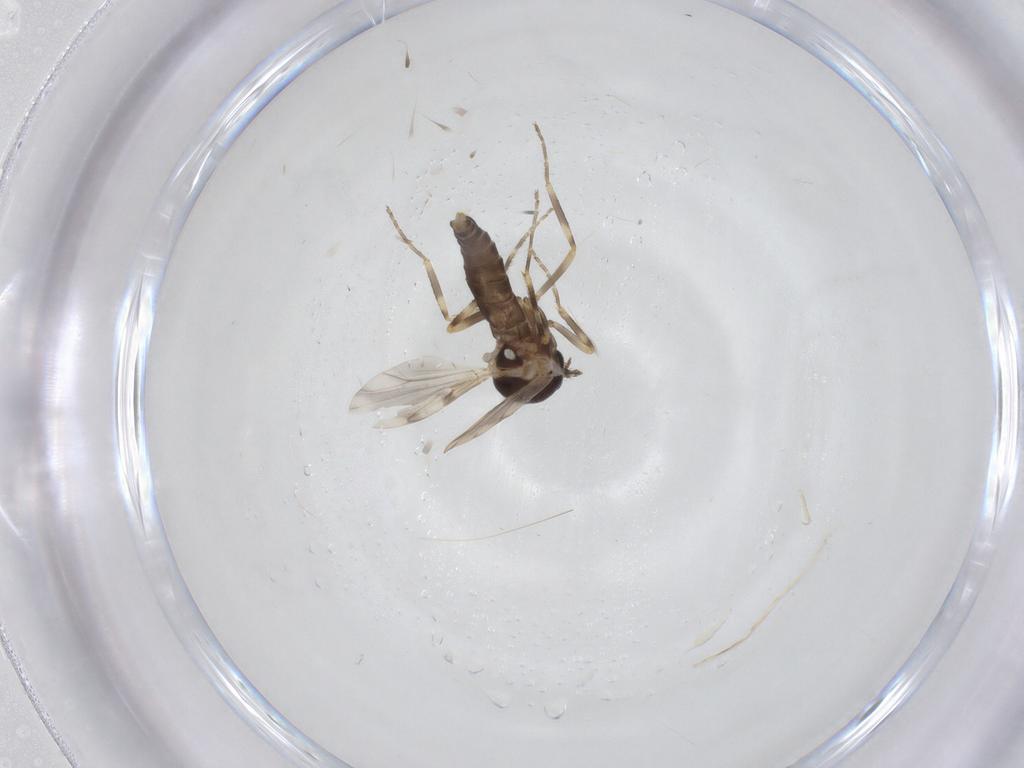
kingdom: Animalia
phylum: Arthropoda
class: Insecta
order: Diptera
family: Ceratopogonidae
